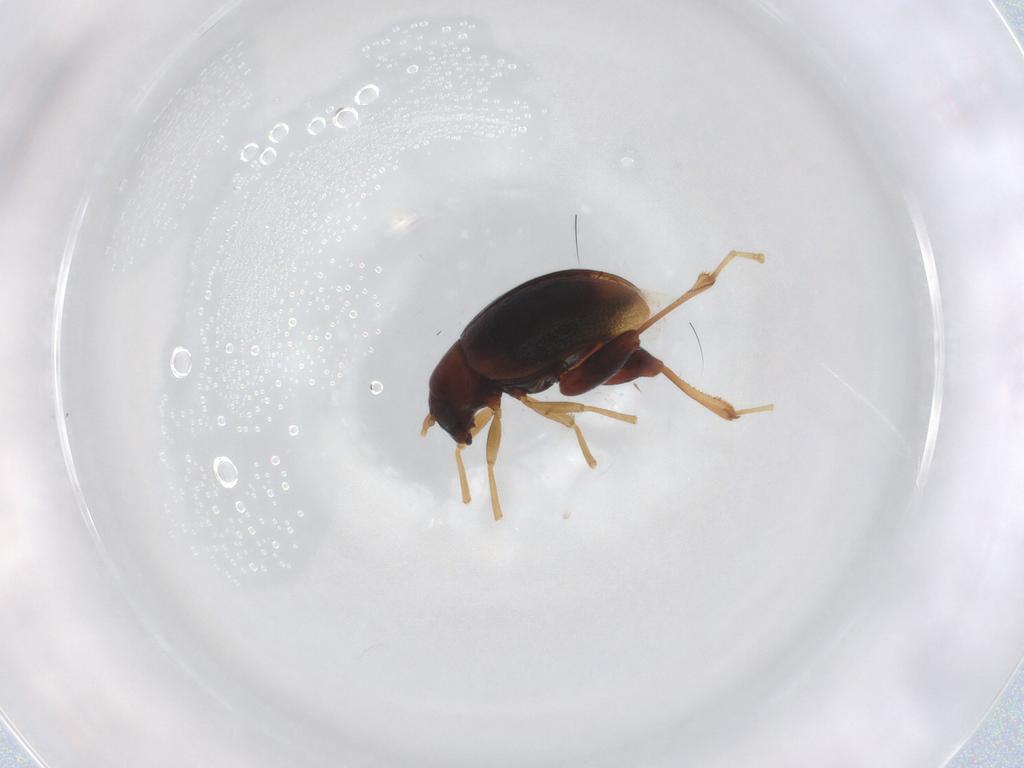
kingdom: Animalia
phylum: Arthropoda
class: Insecta
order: Coleoptera
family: Chrysomelidae
